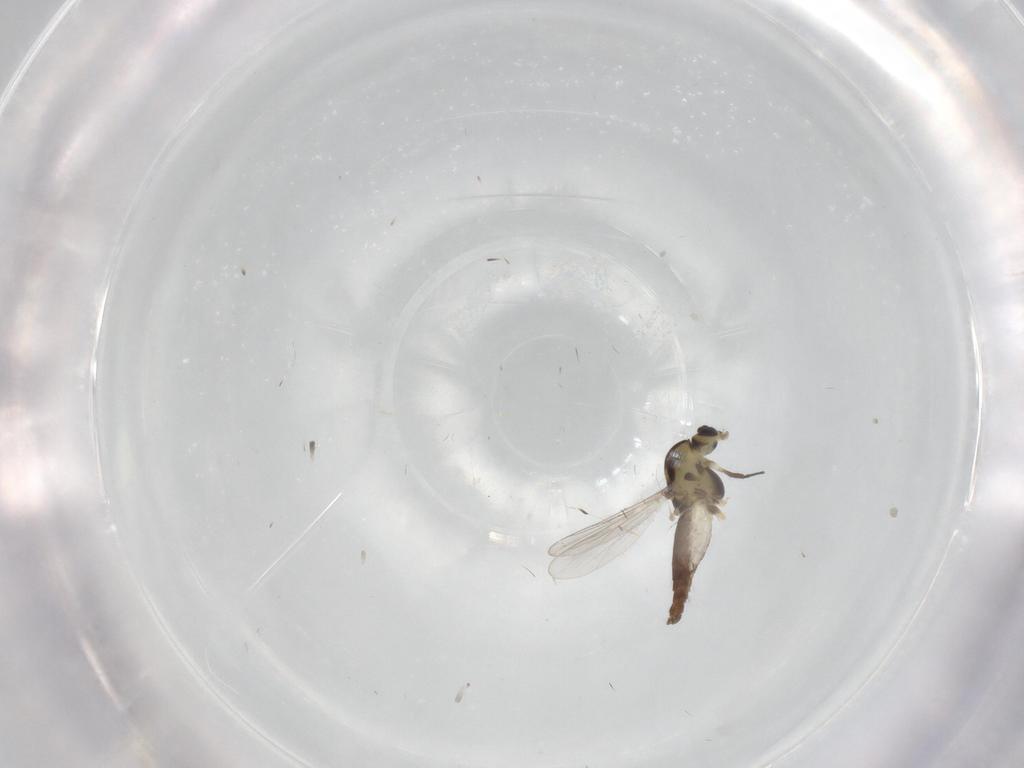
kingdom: Animalia
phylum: Arthropoda
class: Insecta
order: Diptera
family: Chironomidae
